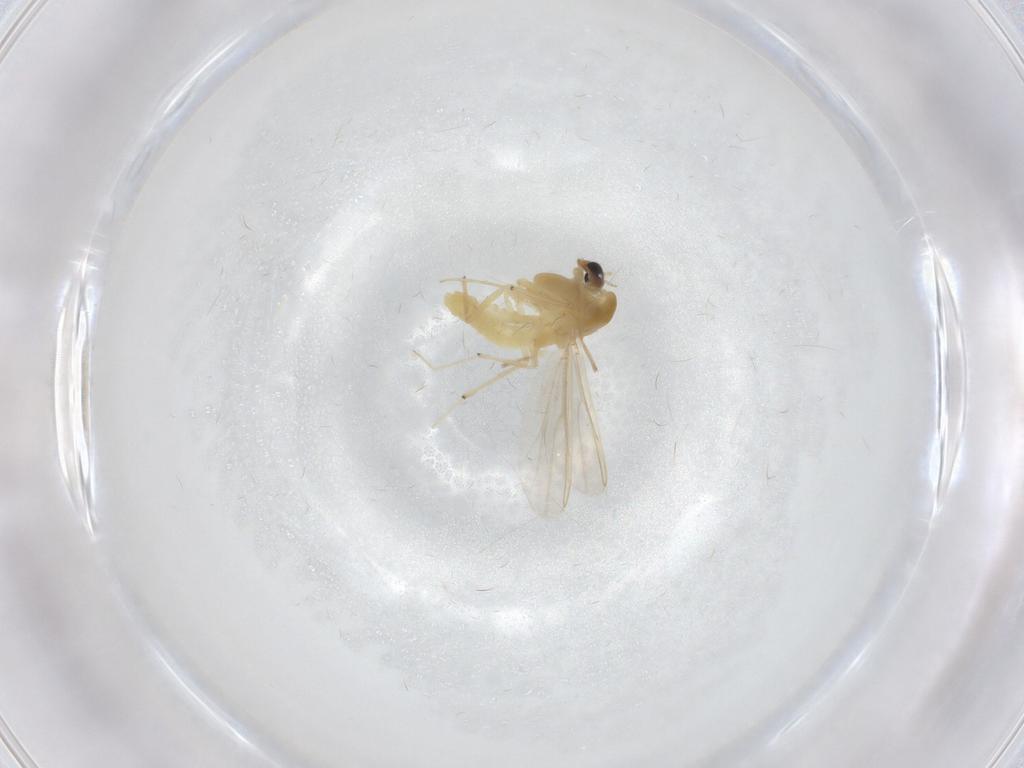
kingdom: Animalia
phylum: Arthropoda
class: Insecta
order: Diptera
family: Chironomidae
